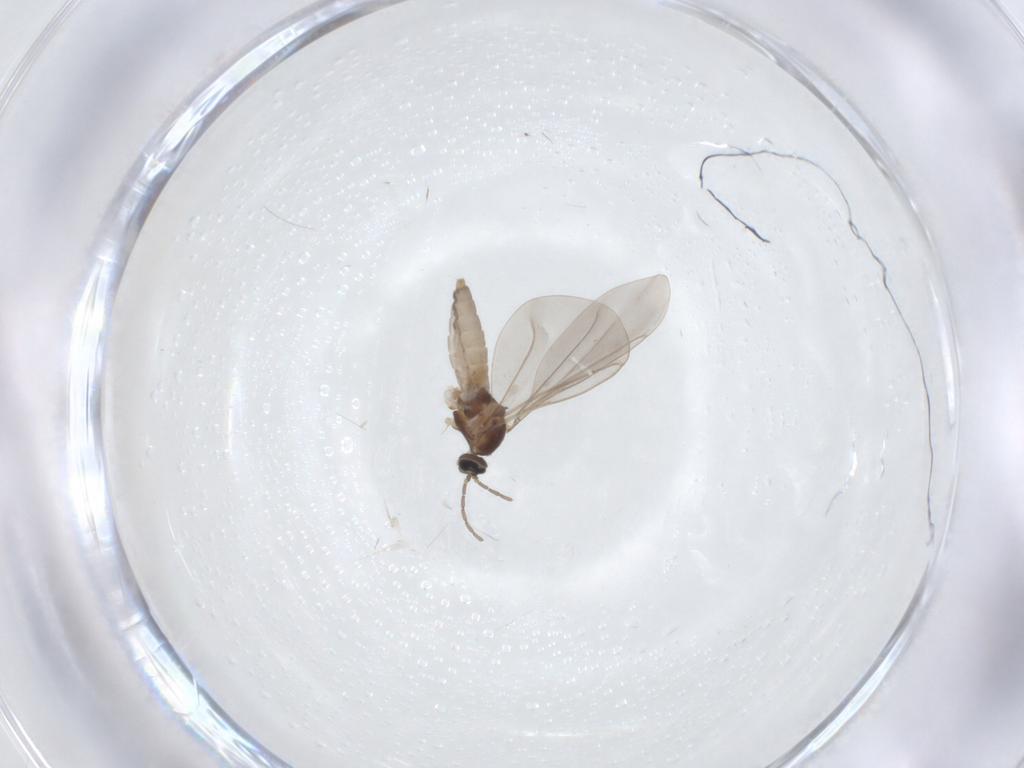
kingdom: Animalia
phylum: Arthropoda
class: Insecta
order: Diptera
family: Cecidomyiidae
